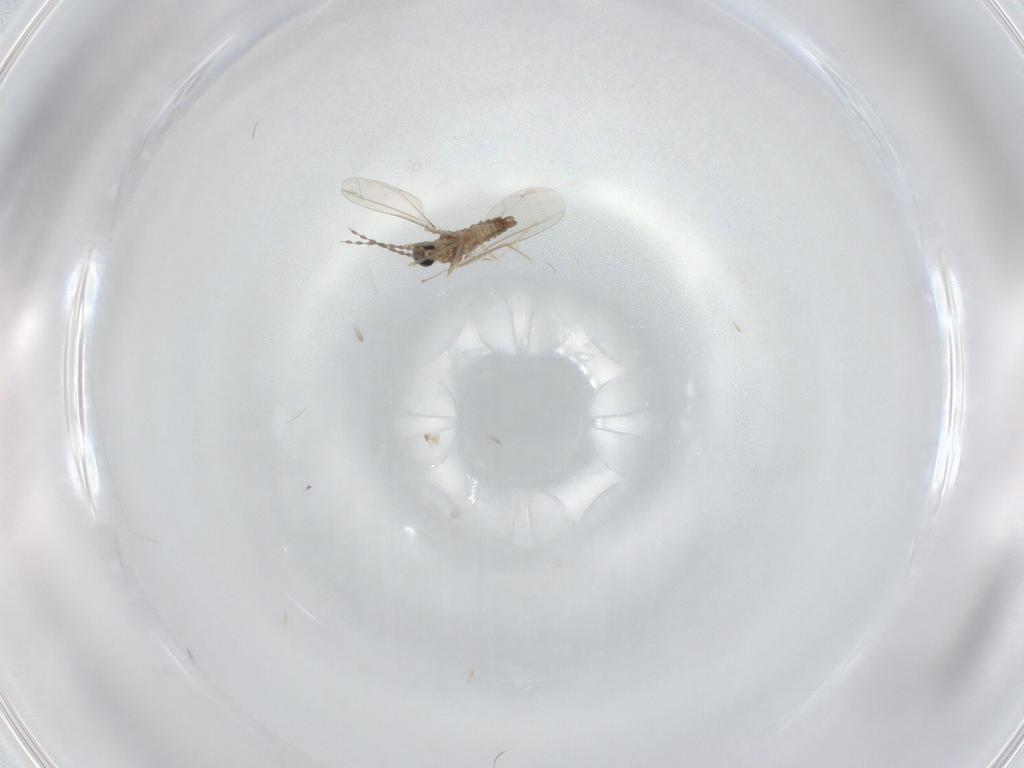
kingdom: Animalia
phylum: Arthropoda
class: Insecta
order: Diptera
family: Cecidomyiidae
